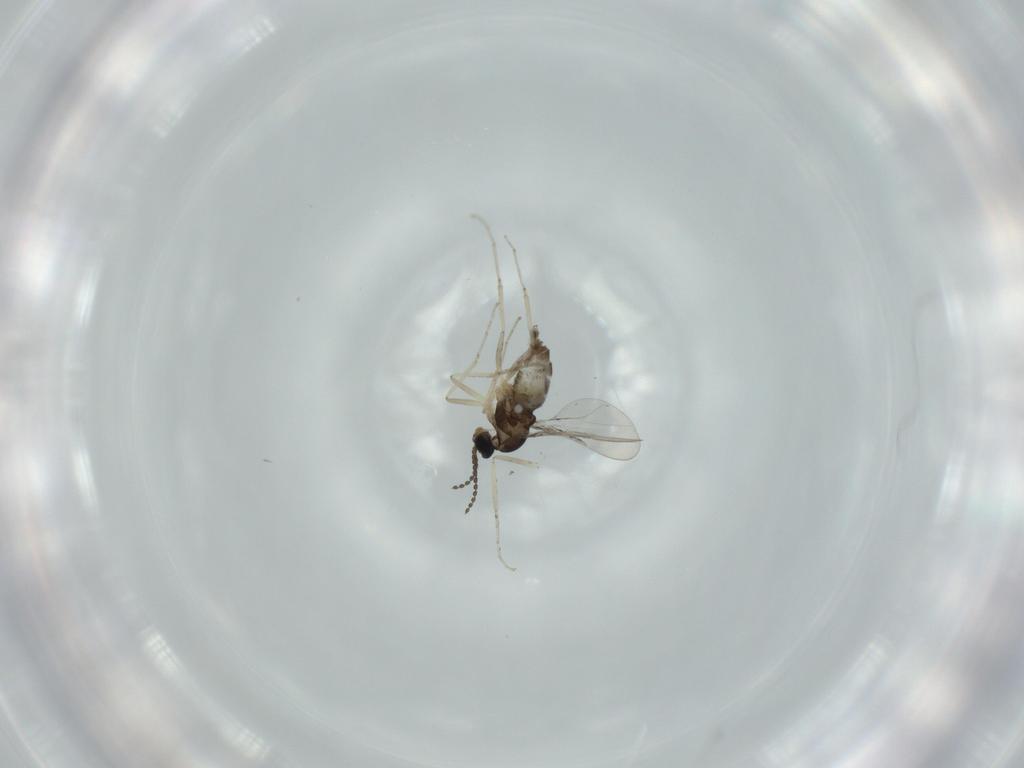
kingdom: Animalia
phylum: Arthropoda
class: Insecta
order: Diptera
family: Cecidomyiidae
